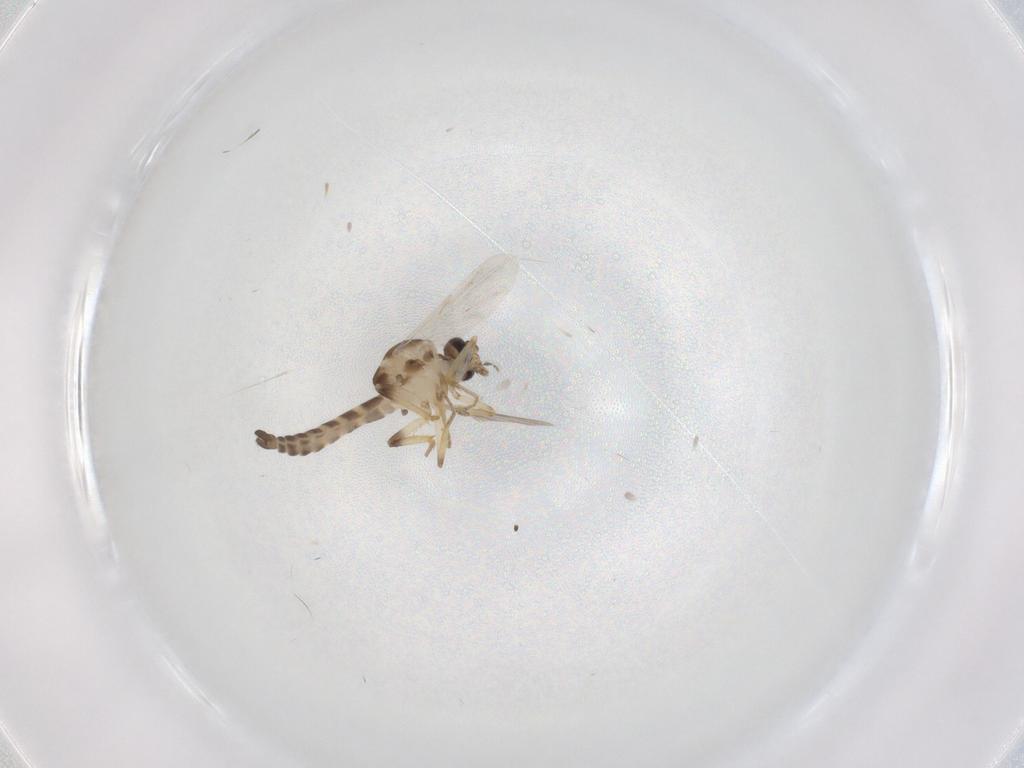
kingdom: Animalia
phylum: Arthropoda
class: Insecta
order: Diptera
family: Ceratopogonidae
